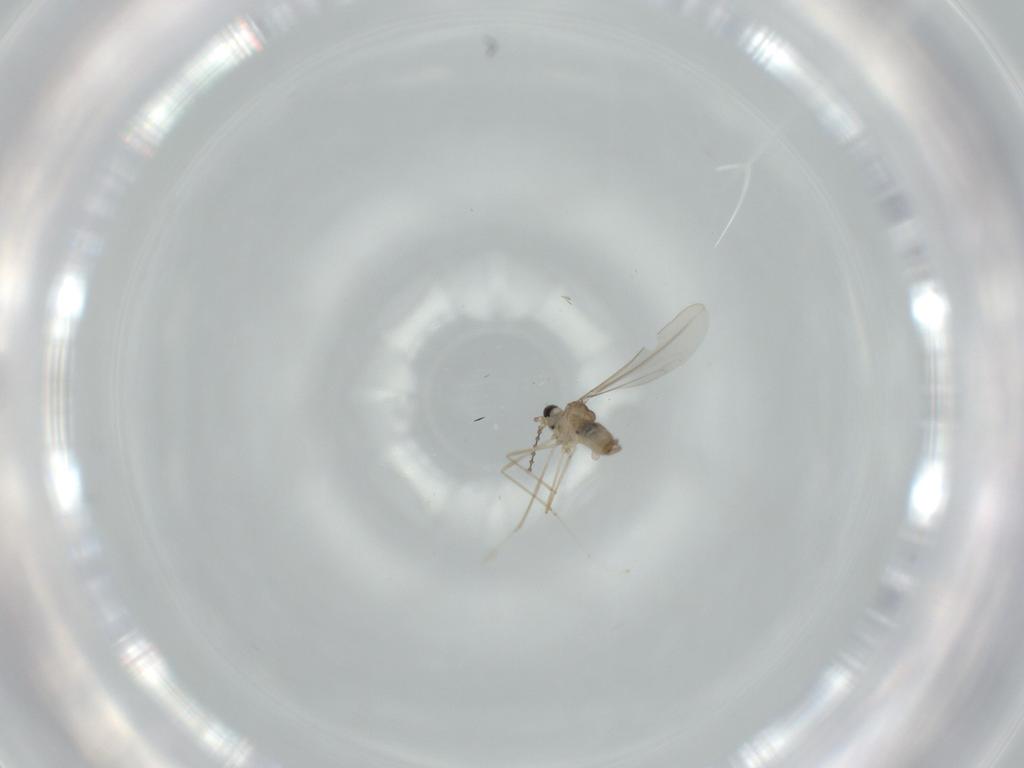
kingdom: Animalia
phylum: Arthropoda
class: Insecta
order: Diptera
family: Cecidomyiidae
